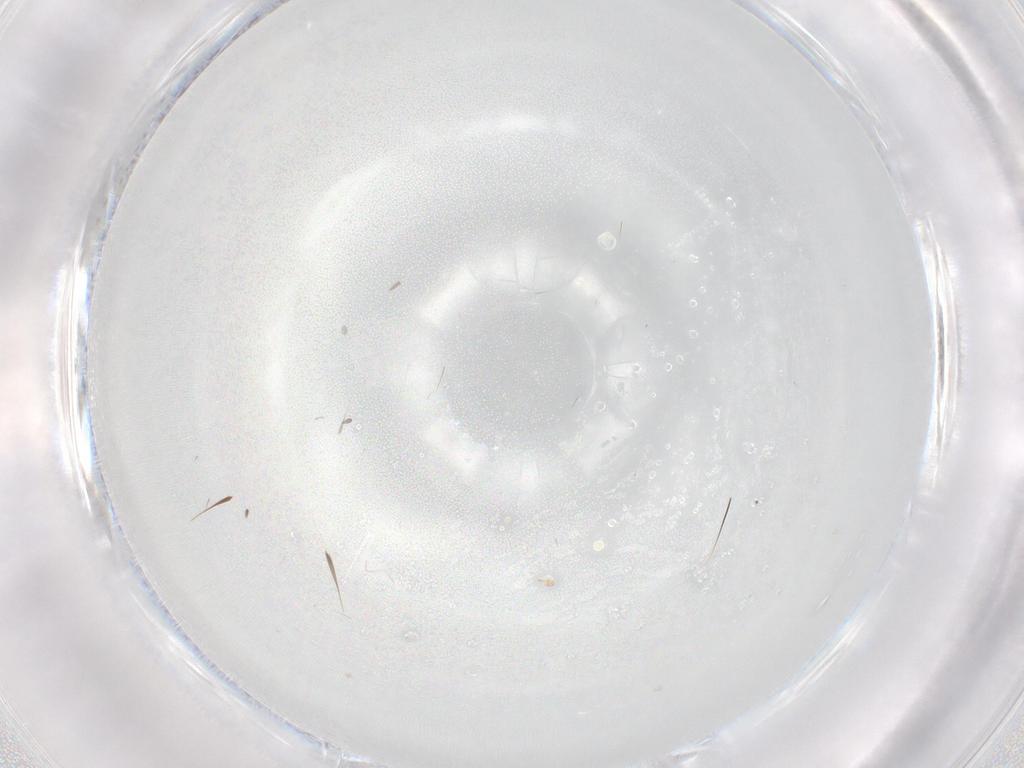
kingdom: Animalia
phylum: Arthropoda
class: Insecta
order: Diptera
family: Cecidomyiidae
